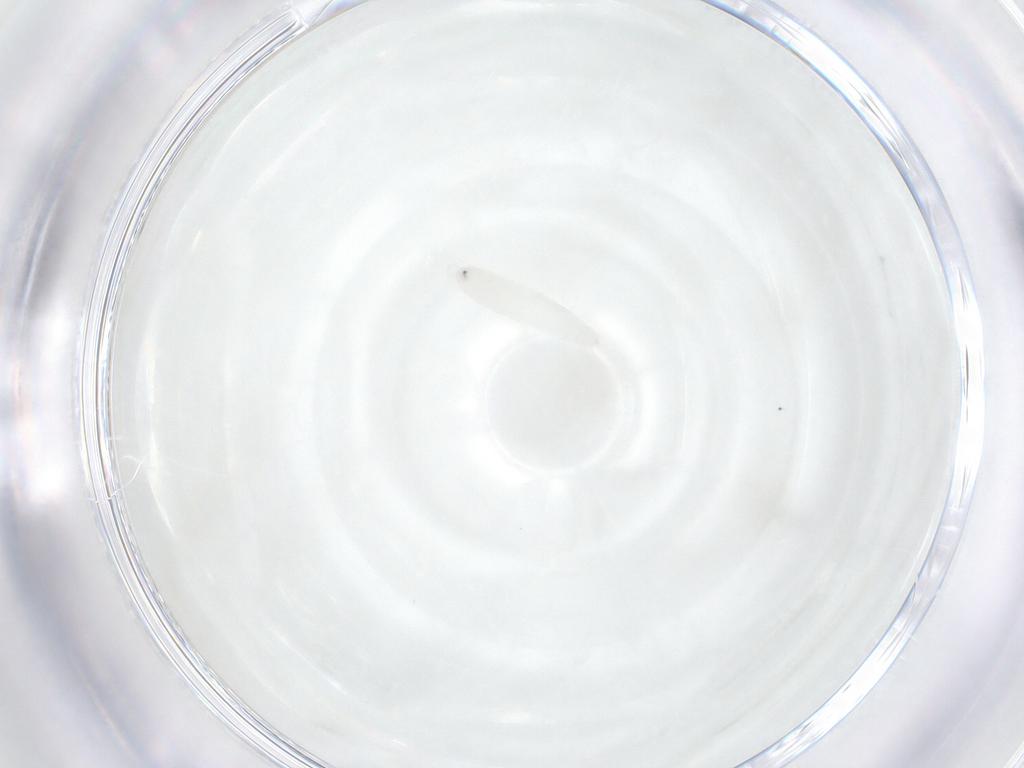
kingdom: Animalia
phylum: Arthropoda
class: Insecta
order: Diptera
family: Tachinidae
